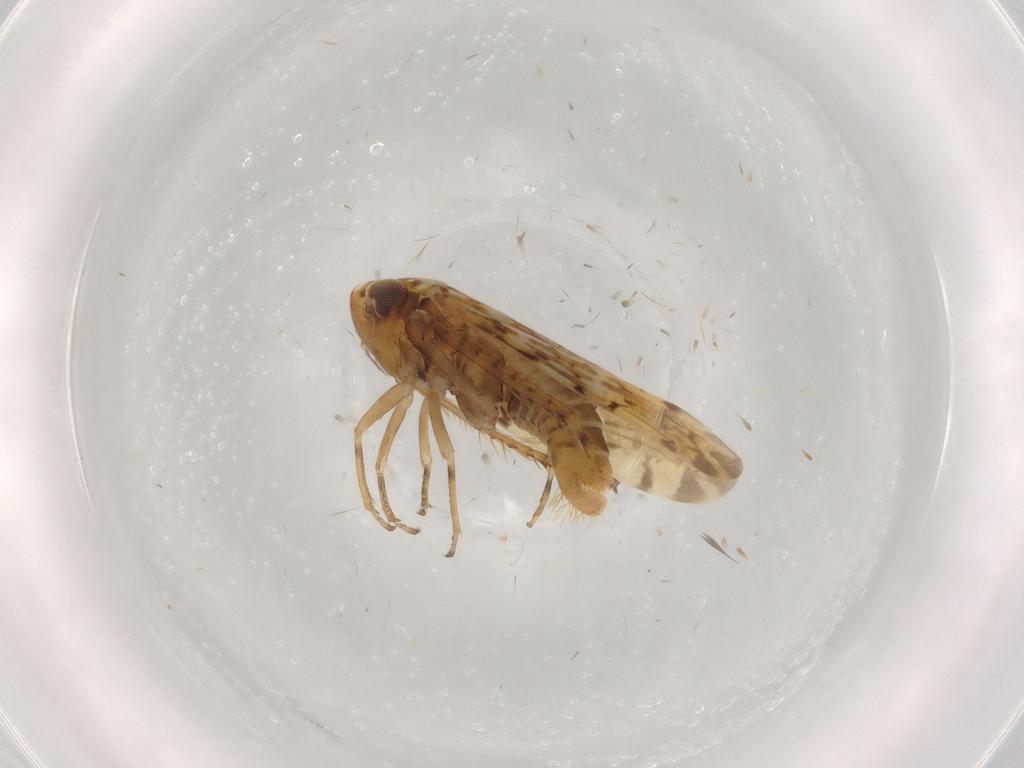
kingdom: Animalia
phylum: Arthropoda
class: Insecta
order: Hemiptera
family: Cicadellidae
